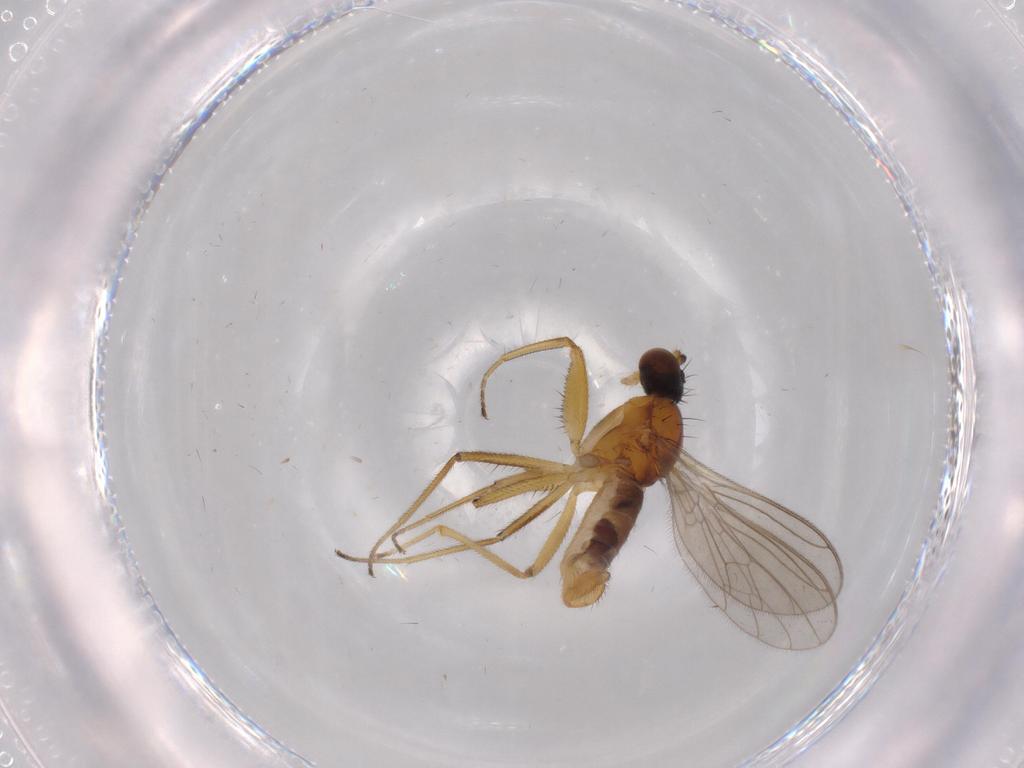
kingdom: Animalia
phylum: Arthropoda
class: Insecta
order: Diptera
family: Empididae
